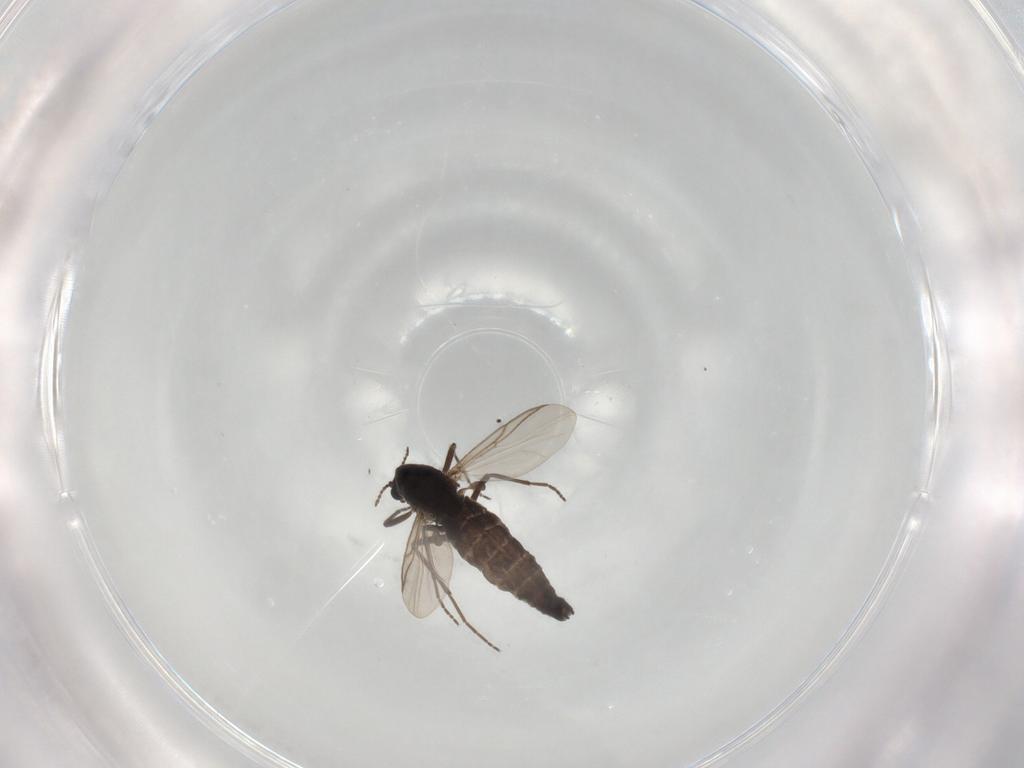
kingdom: Animalia
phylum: Arthropoda
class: Insecta
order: Diptera
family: Chironomidae
